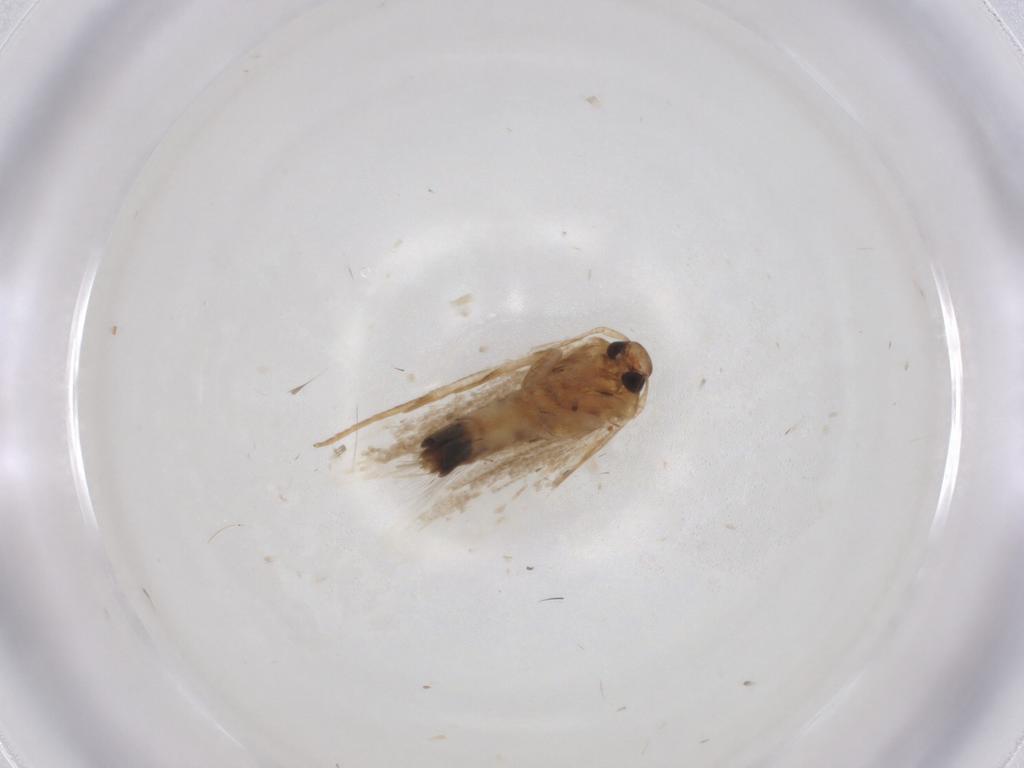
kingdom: Animalia
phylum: Arthropoda
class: Insecta
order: Lepidoptera
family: Cosmopterigidae
